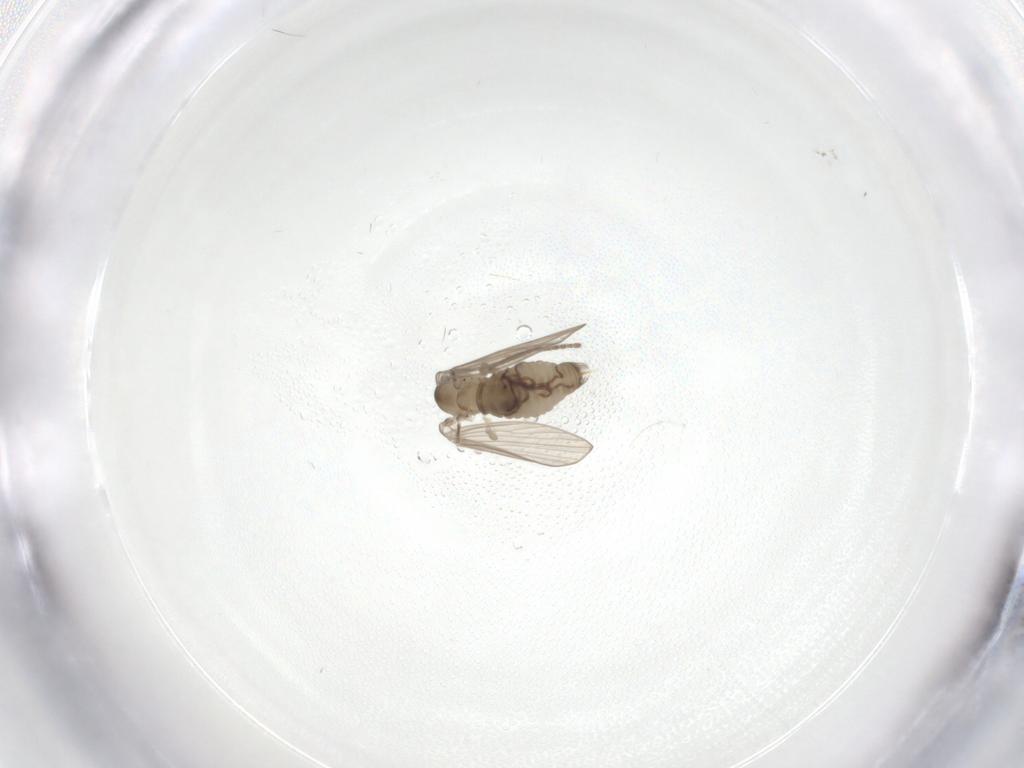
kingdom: Animalia
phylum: Arthropoda
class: Insecta
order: Diptera
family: Psychodidae
